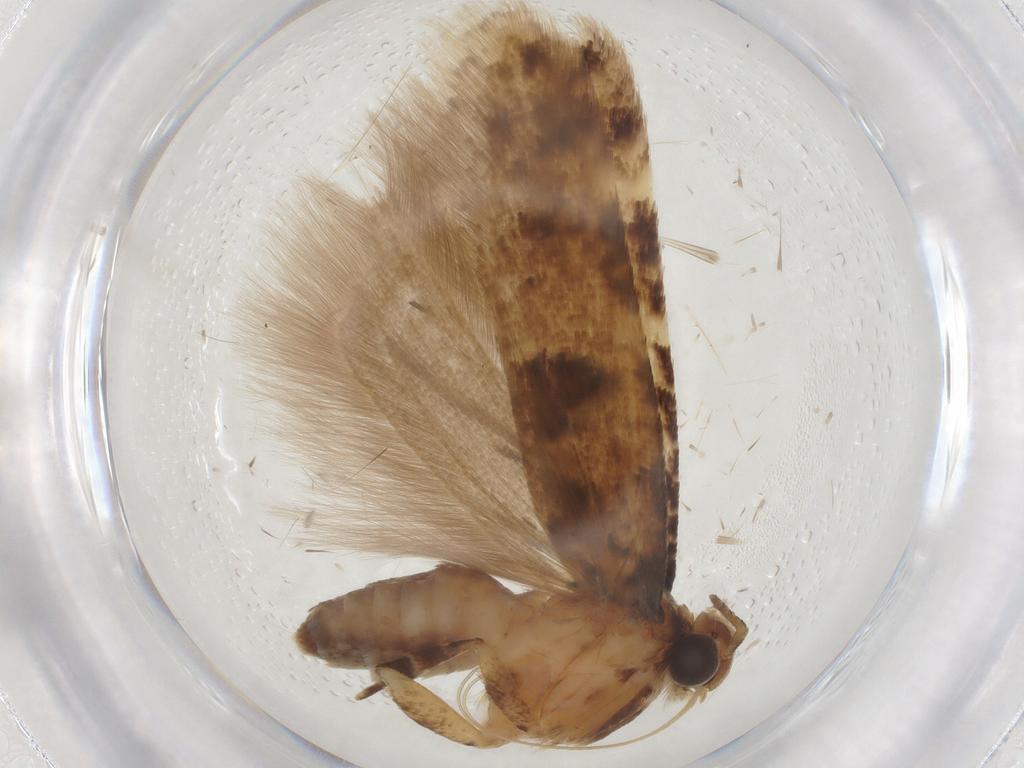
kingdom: Animalia
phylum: Arthropoda
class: Insecta
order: Lepidoptera
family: Gelechiidae
